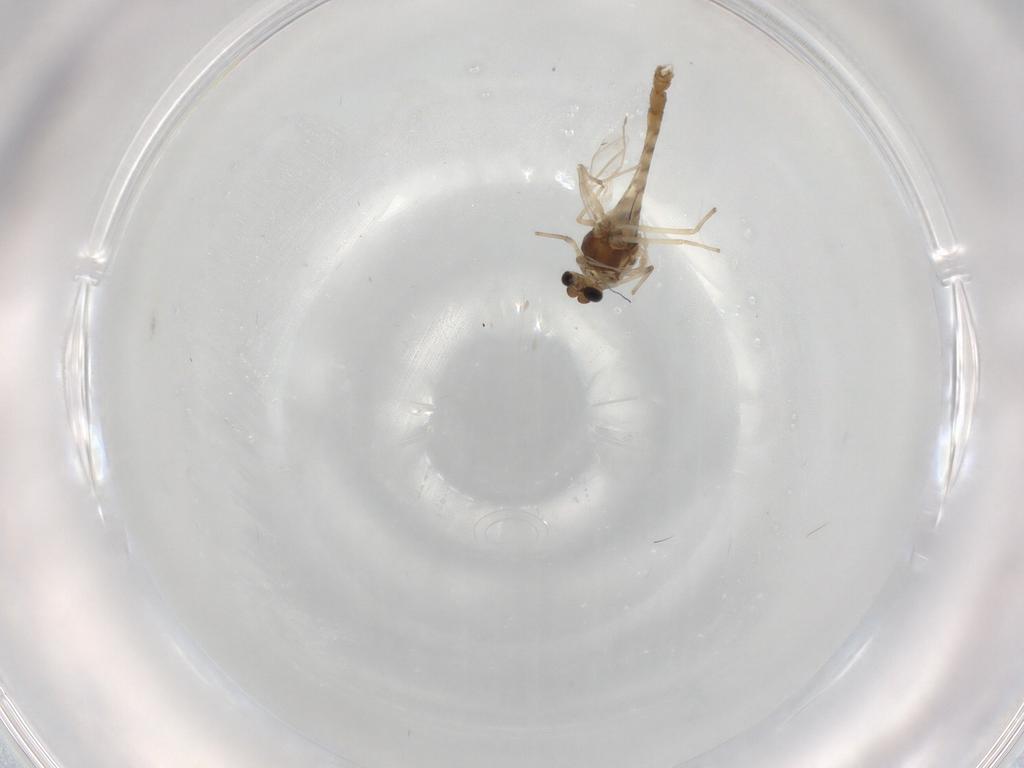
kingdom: Animalia
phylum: Arthropoda
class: Insecta
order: Diptera
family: Chironomidae
